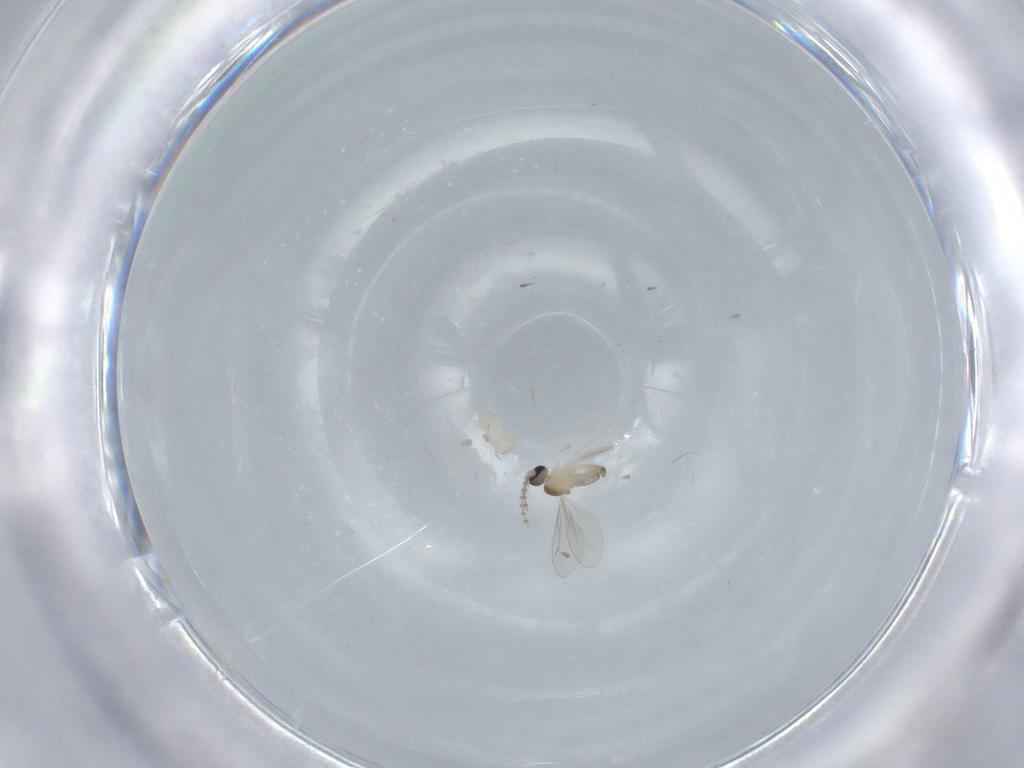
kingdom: Animalia
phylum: Arthropoda
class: Insecta
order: Diptera
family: Cecidomyiidae
